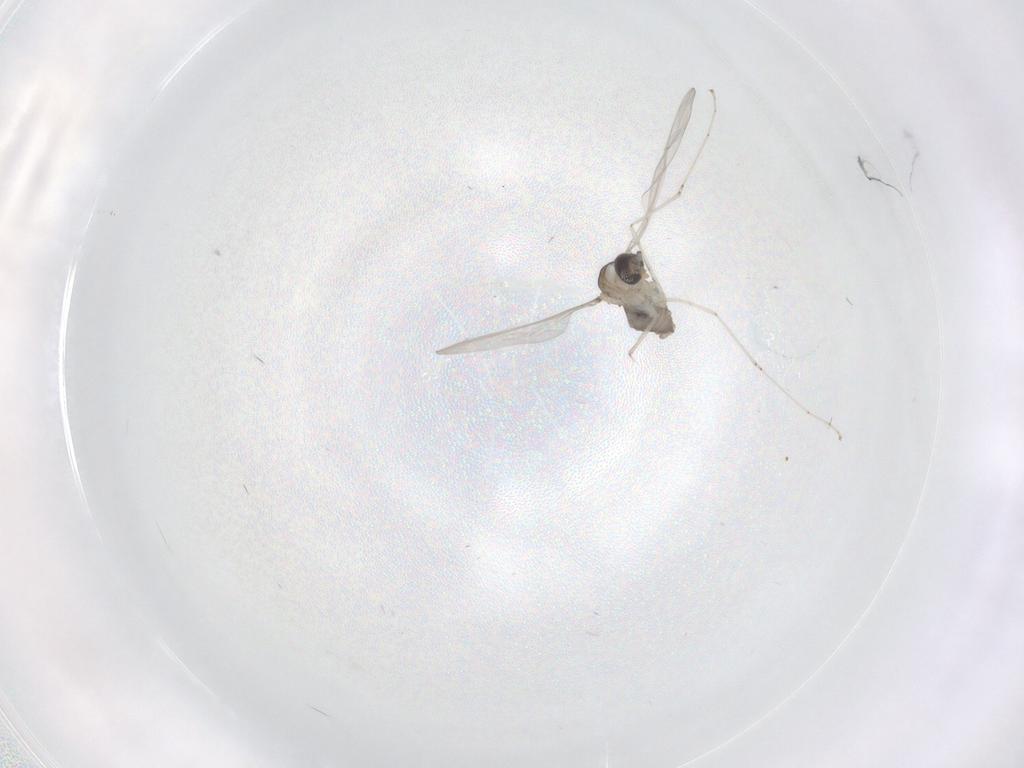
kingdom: Animalia
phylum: Arthropoda
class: Insecta
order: Diptera
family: Cecidomyiidae
